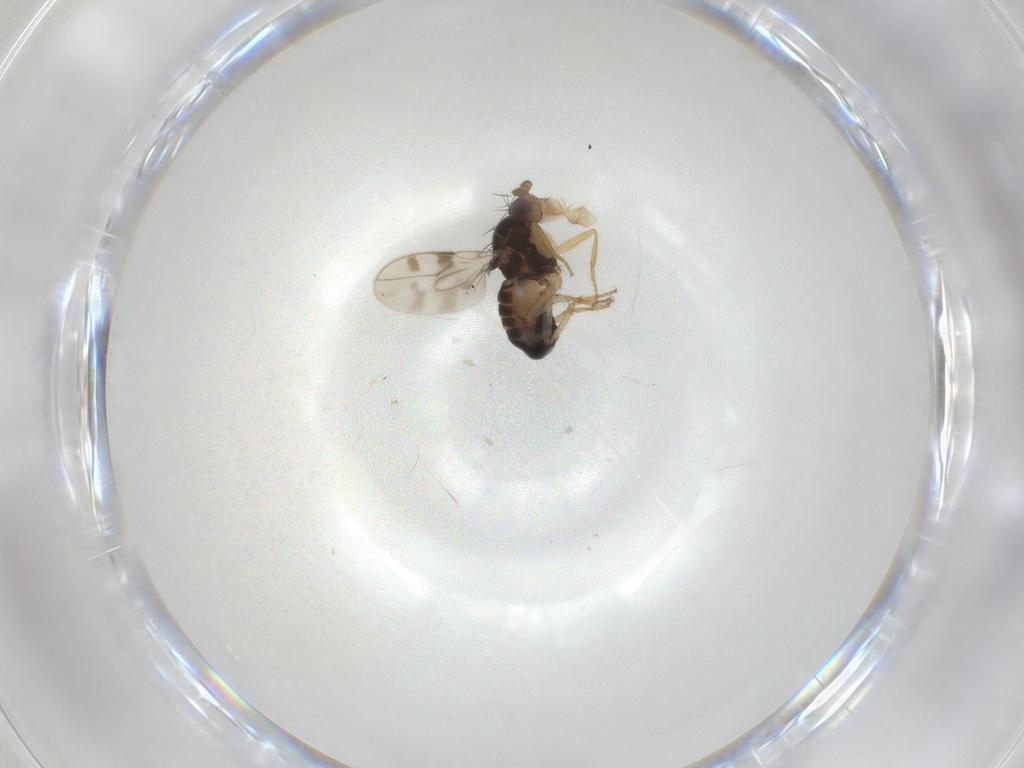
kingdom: Animalia
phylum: Arthropoda
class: Insecta
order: Diptera
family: Sphaeroceridae
